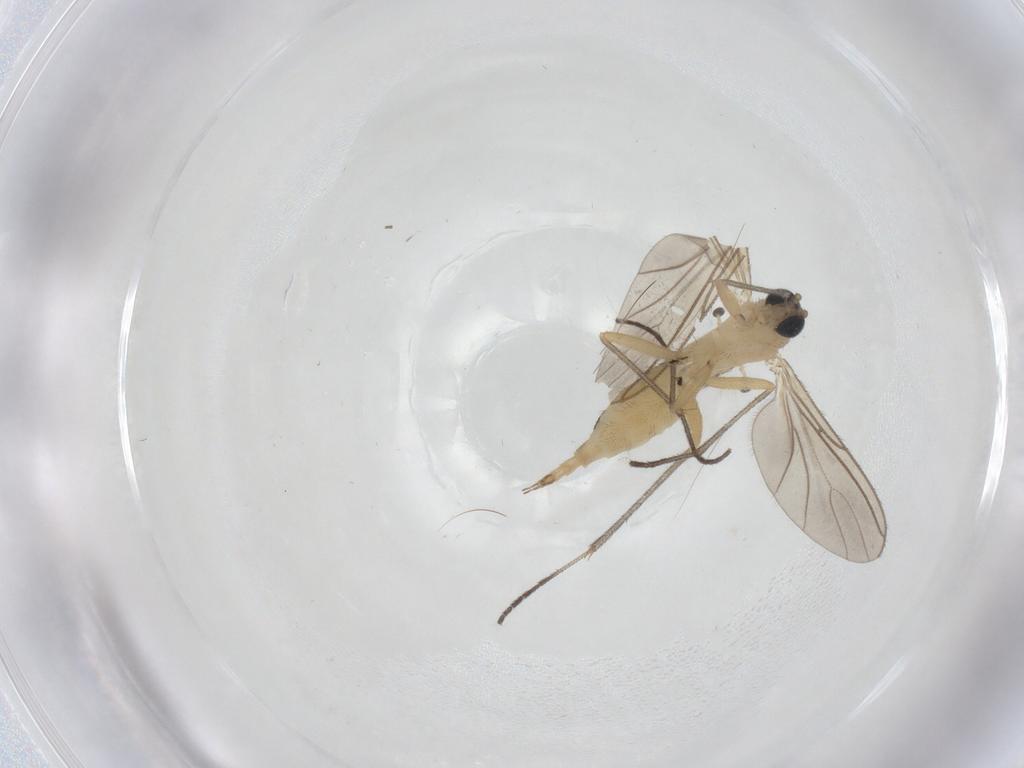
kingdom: Animalia
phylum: Arthropoda
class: Insecta
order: Diptera
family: Sciaridae
